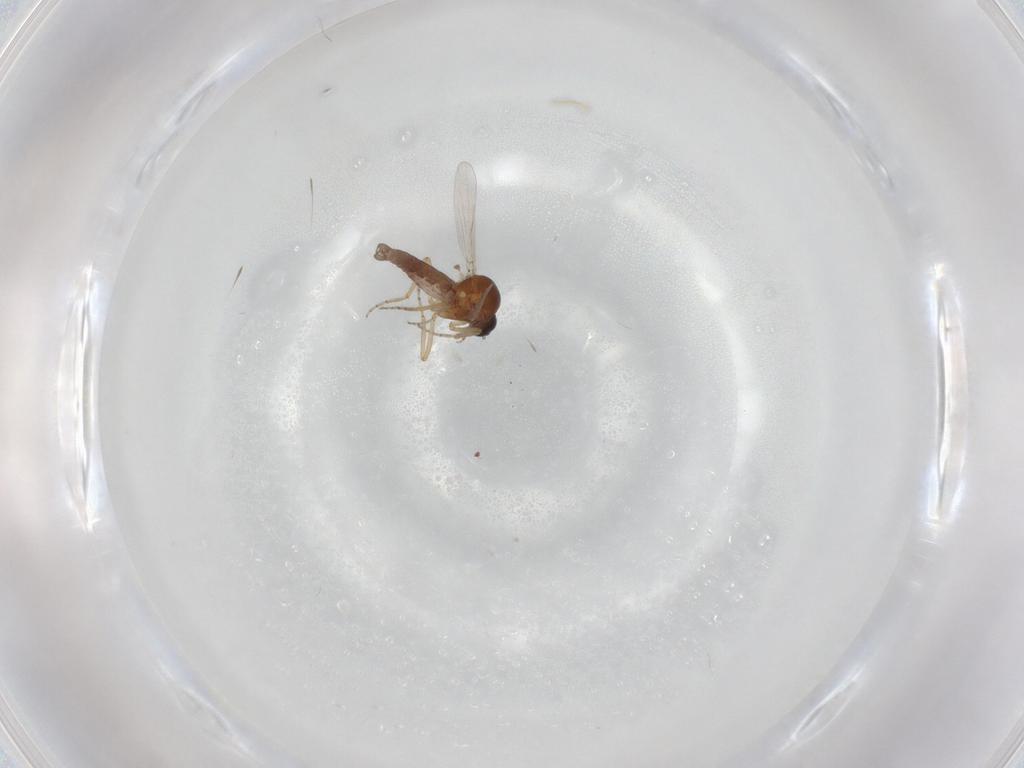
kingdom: Animalia
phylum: Arthropoda
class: Insecta
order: Diptera
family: Ceratopogonidae
